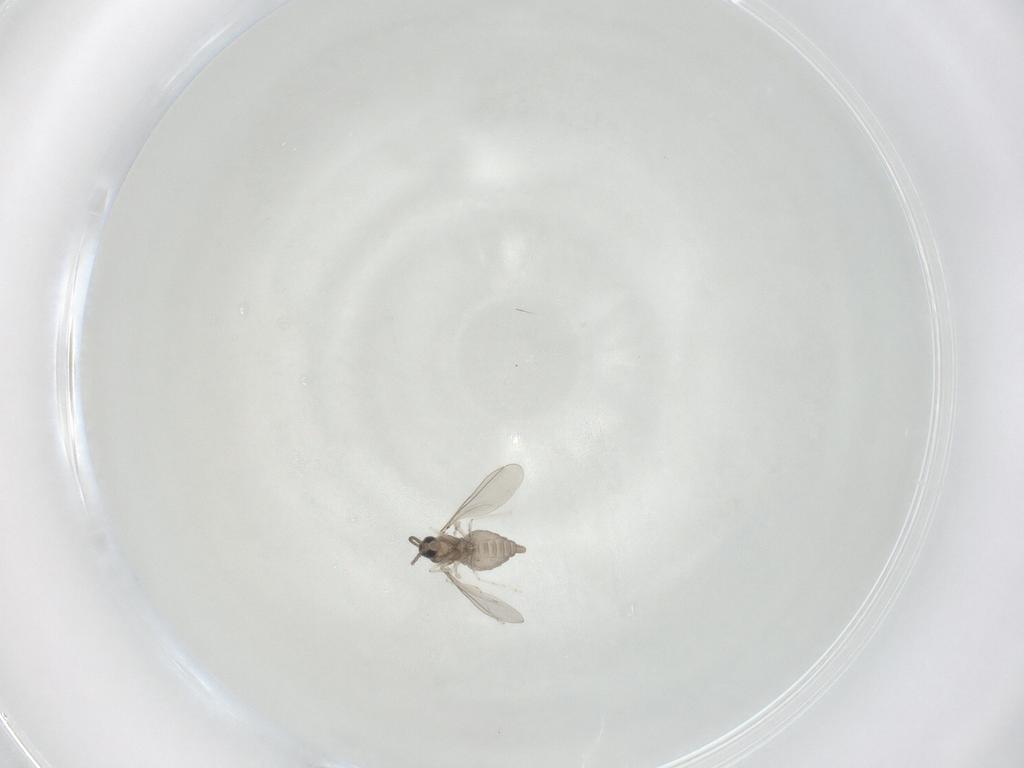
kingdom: Animalia
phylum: Arthropoda
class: Insecta
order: Diptera
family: Cecidomyiidae
